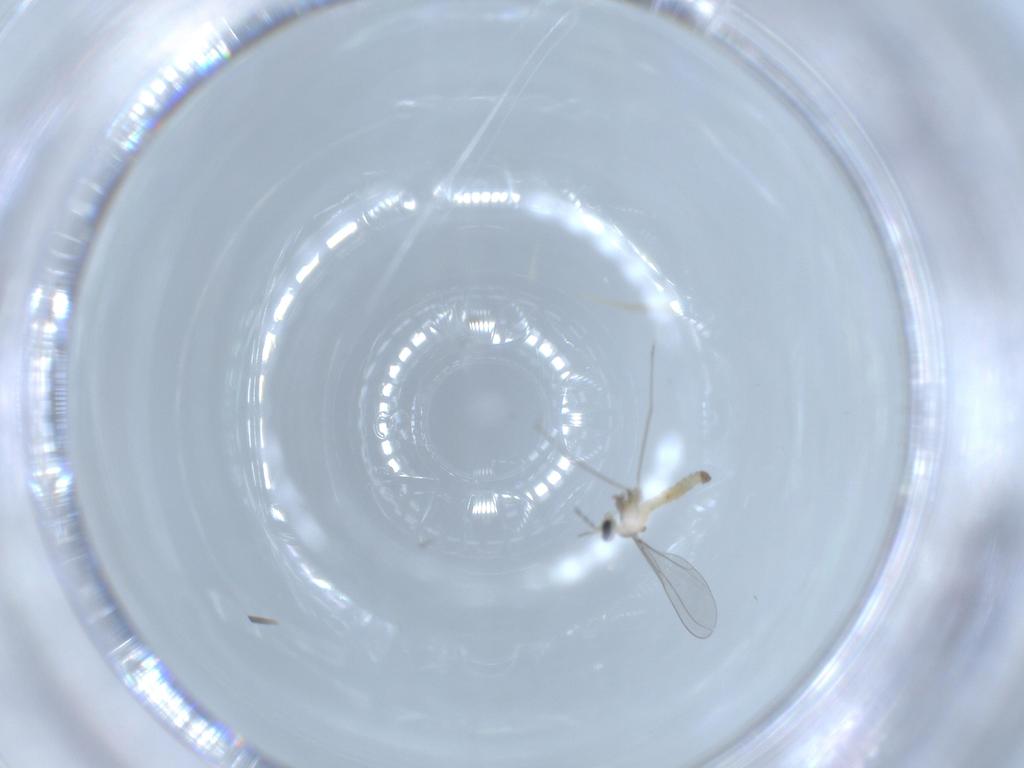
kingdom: Animalia
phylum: Arthropoda
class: Insecta
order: Diptera
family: Cecidomyiidae
